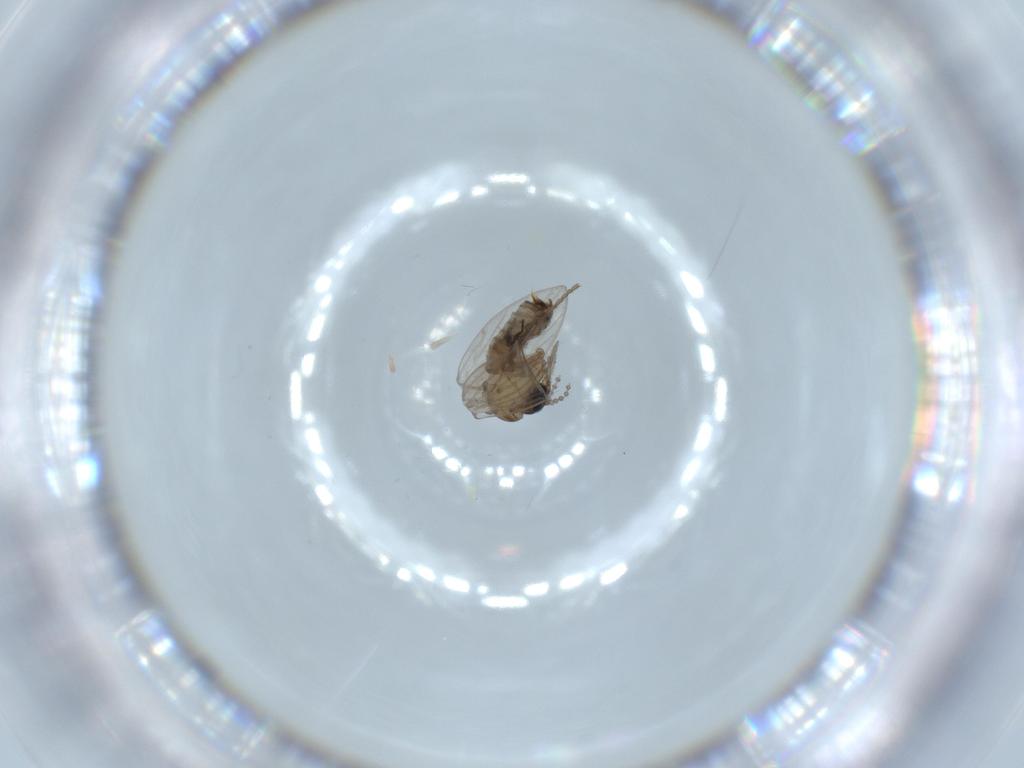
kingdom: Animalia
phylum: Arthropoda
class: Insecta
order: Diptera
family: Psychodidae
